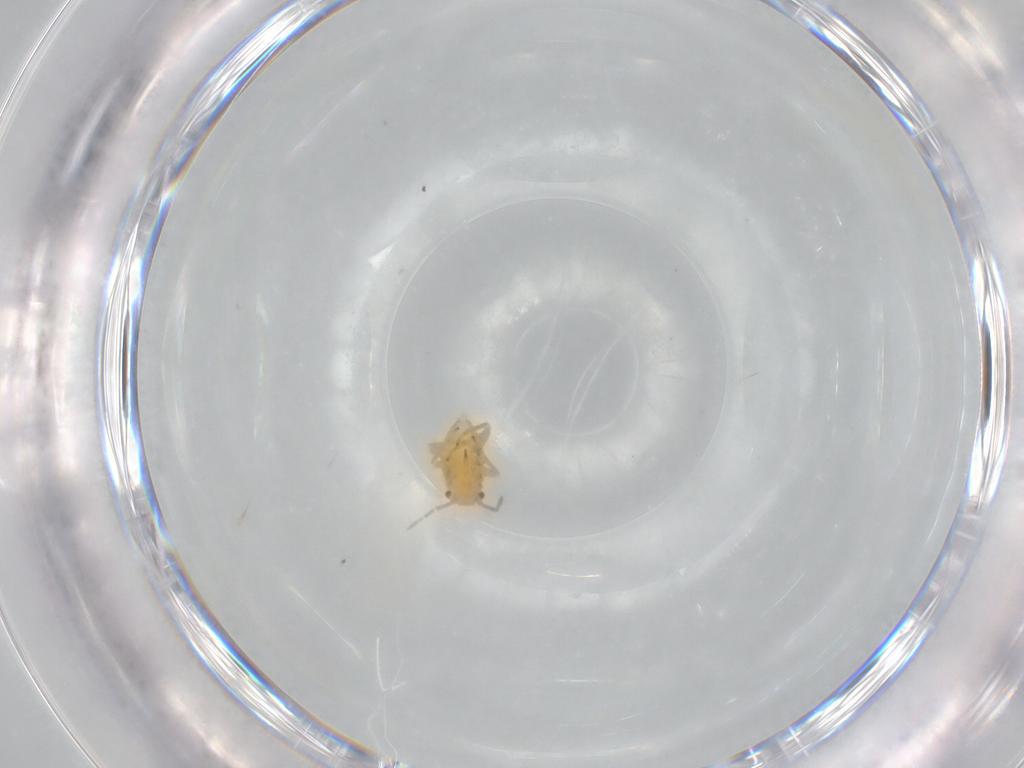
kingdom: Animalia
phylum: Arthropoda
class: Insecta
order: Hemiptera
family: Miridae
